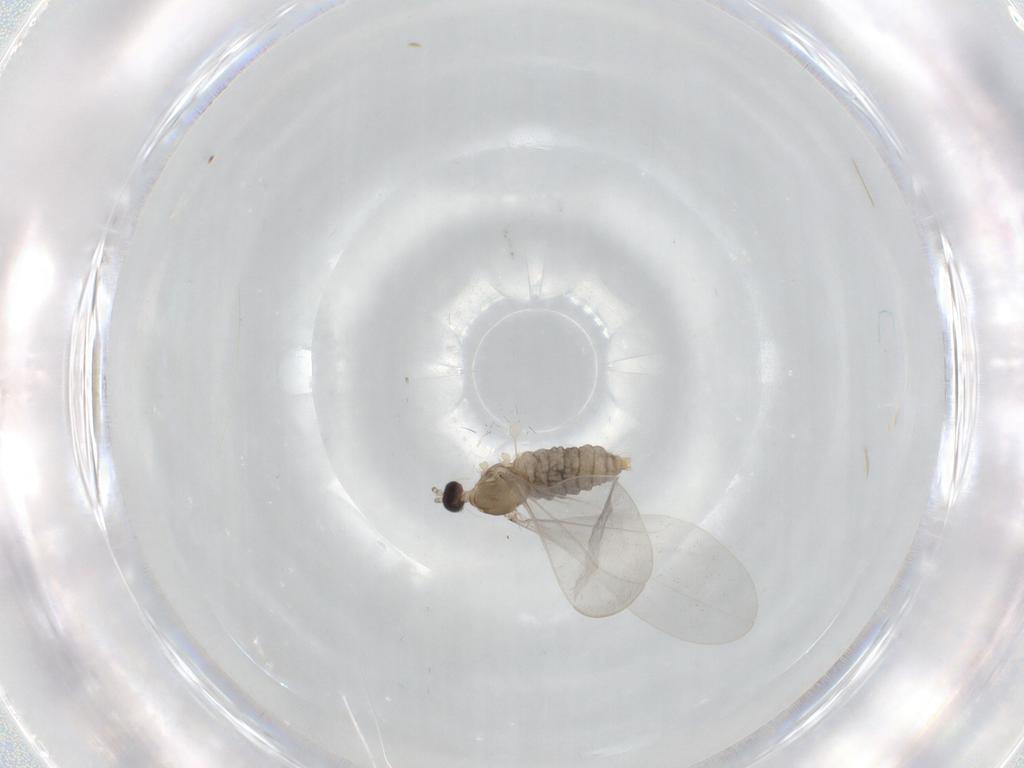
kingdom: Animalia
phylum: Arthropoda
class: Insecta
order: Diptera
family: Cecidomyiidae
